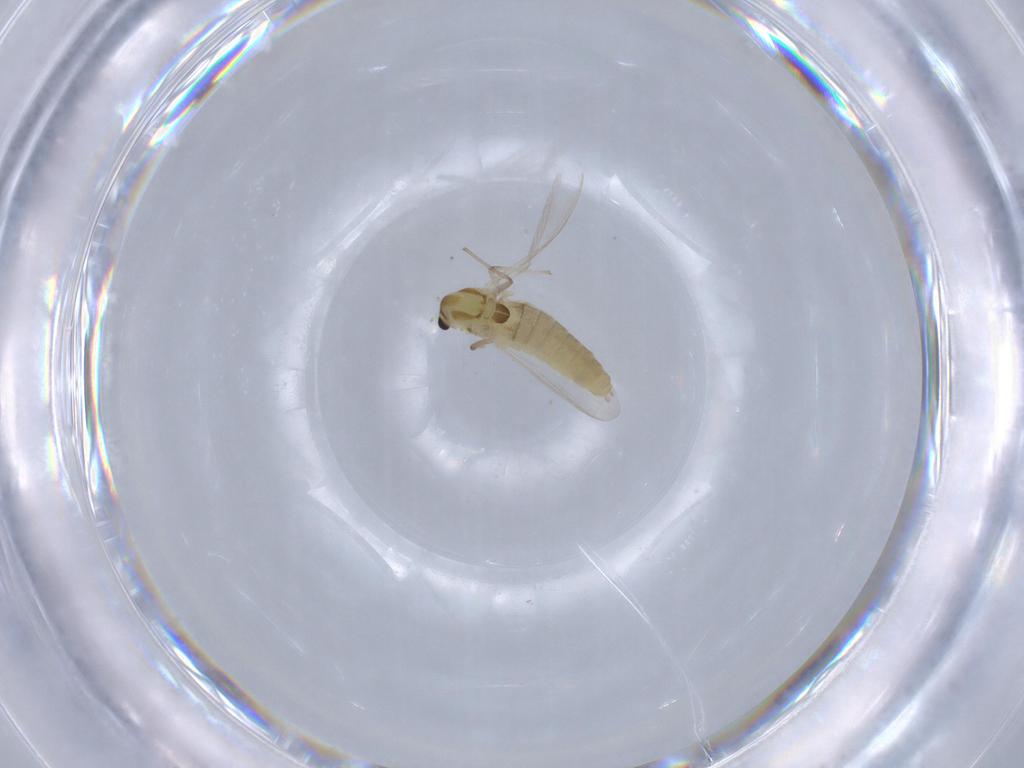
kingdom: Animalia
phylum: Arthropoda
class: Insecta
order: Diptera
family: Chironomidae
